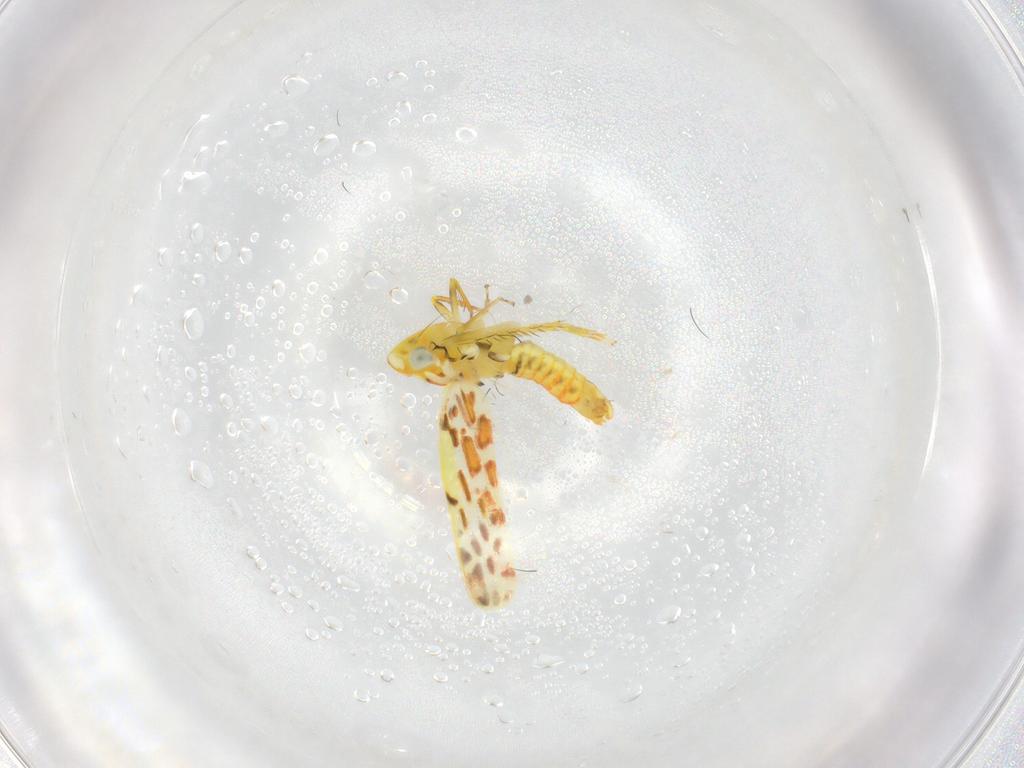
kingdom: Animalia
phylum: Arthropoda
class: Insecta
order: Hemiptera
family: Cicadellidae
